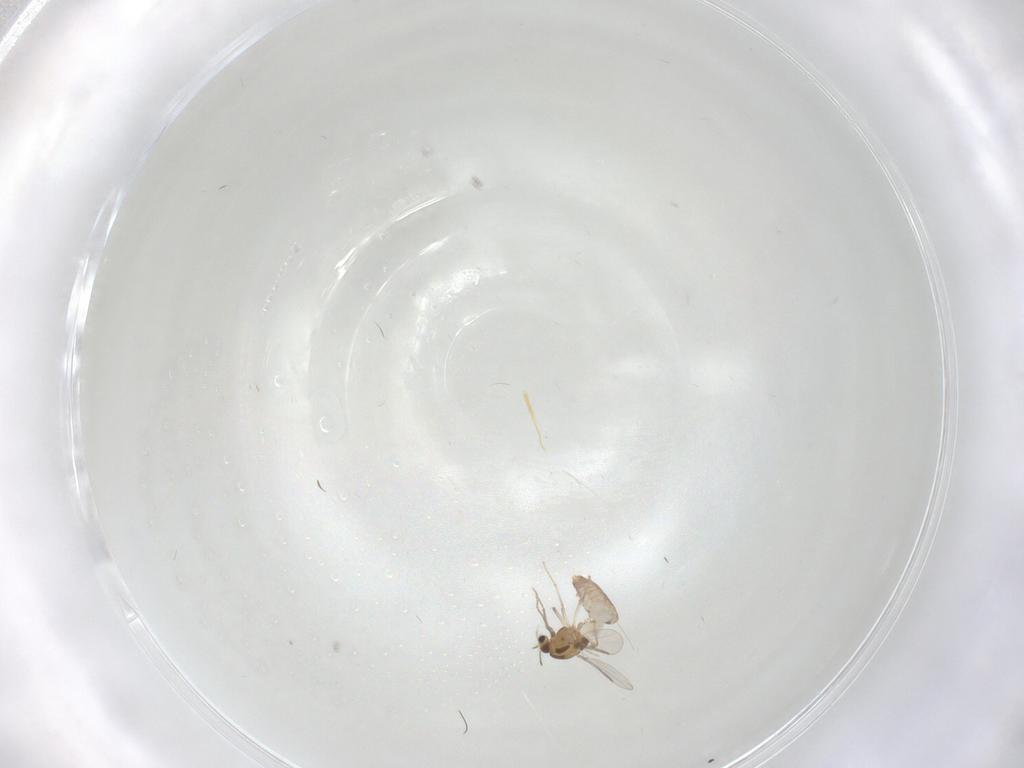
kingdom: Animalia
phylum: Arthropoda
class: Insecta
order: Diptera
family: Chironomidae
